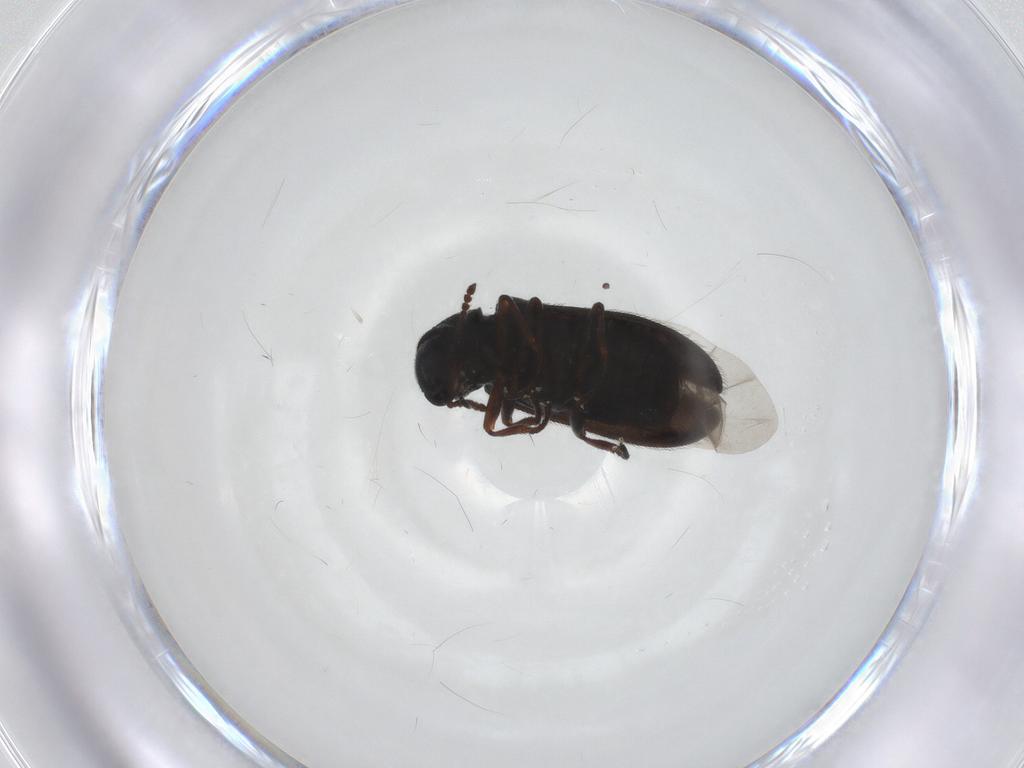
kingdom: Animalia
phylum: Arthropoda
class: Insecta
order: Coleoptera
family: Melyridae
